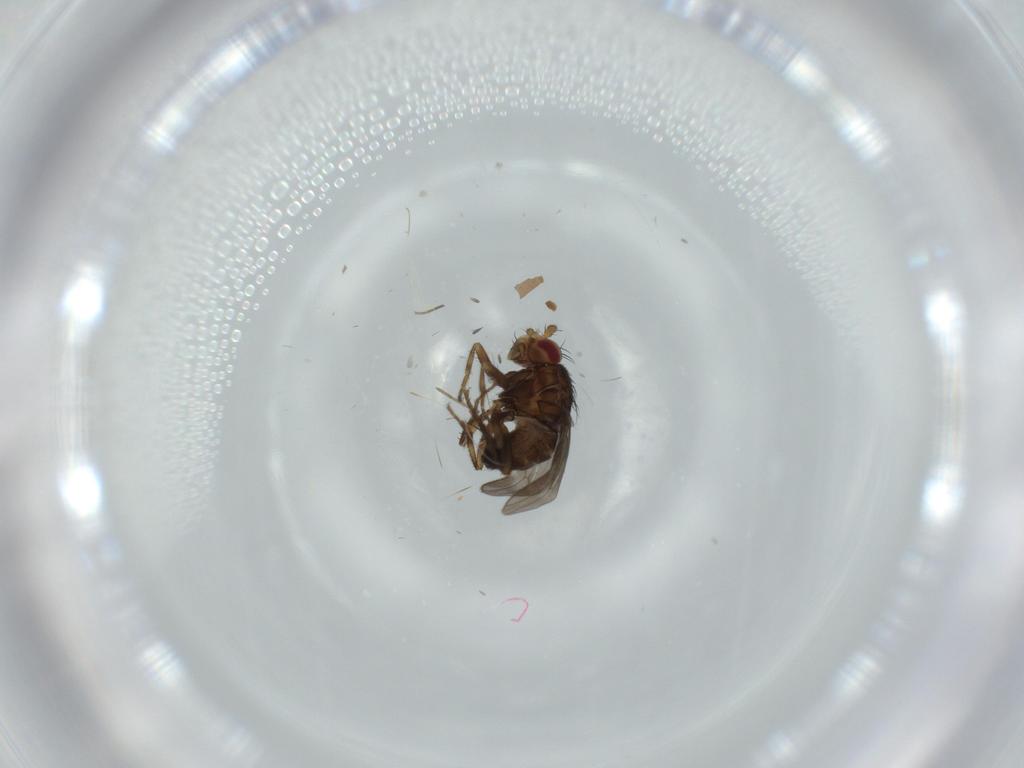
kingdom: Animalia
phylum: Arthropoda
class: Insecta
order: Diptera
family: Sphaeroceridae
